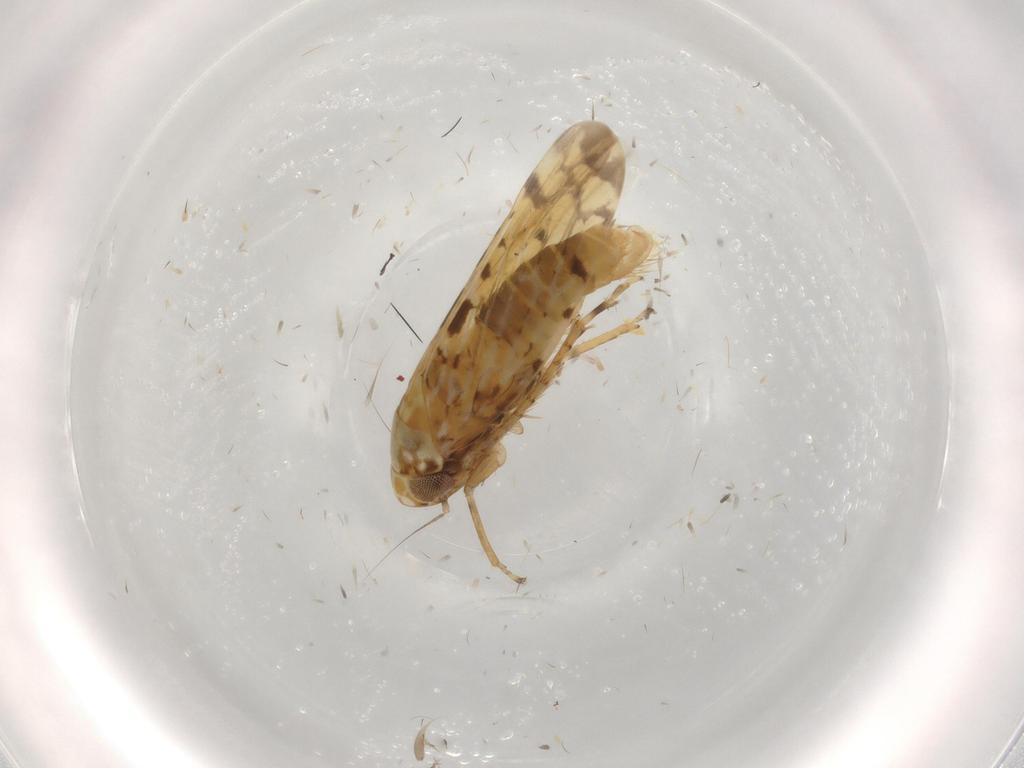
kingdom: Animalia
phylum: Arthropoda
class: Insecta
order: Hemiptera
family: Cicadellidae
